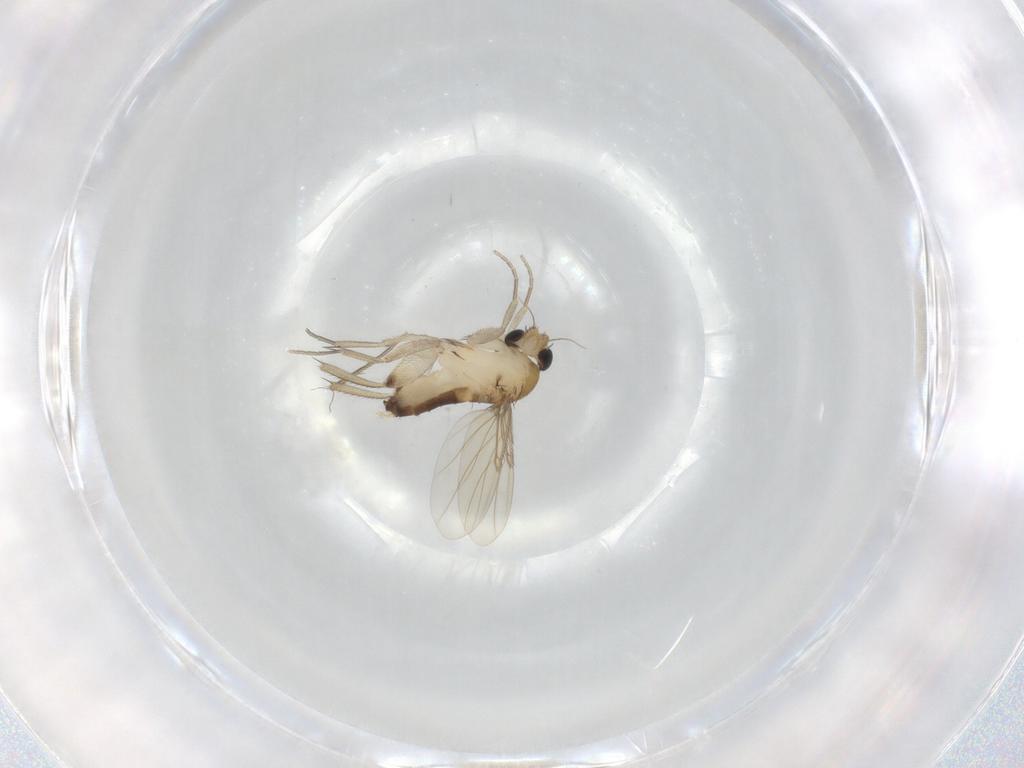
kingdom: Animalia
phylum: Arthropoda
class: Insecta
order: Diptera
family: Phoridae
